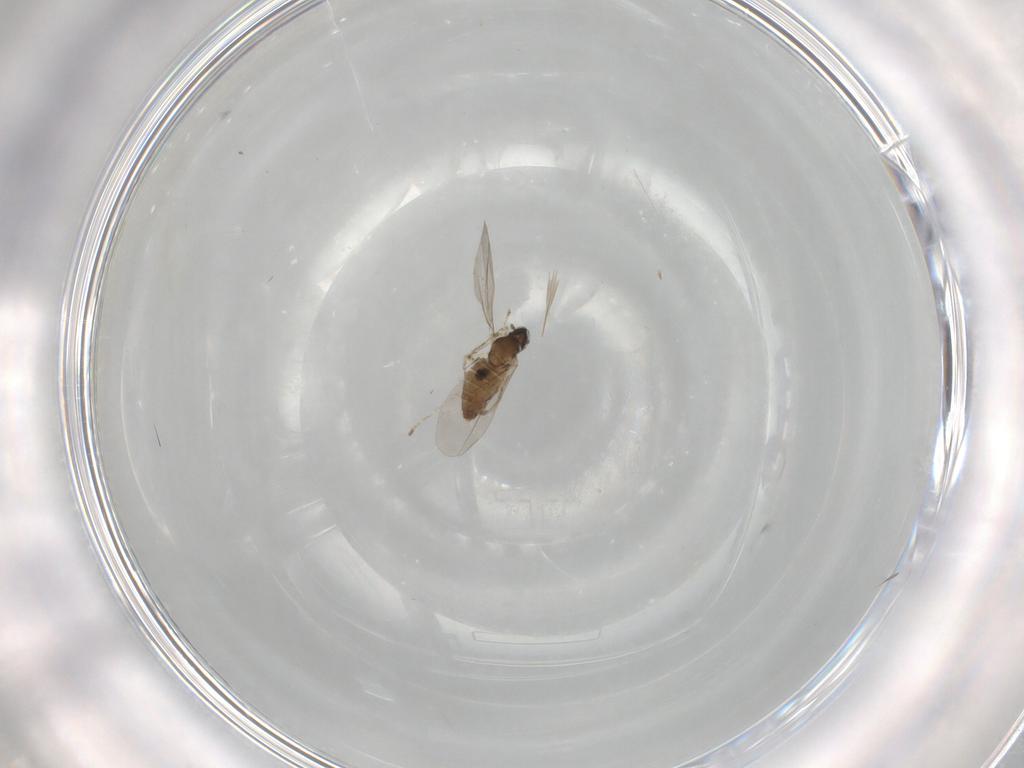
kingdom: Animalia
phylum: Arthropoda
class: Insecta
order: Diptera
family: Cecidomyiidae
